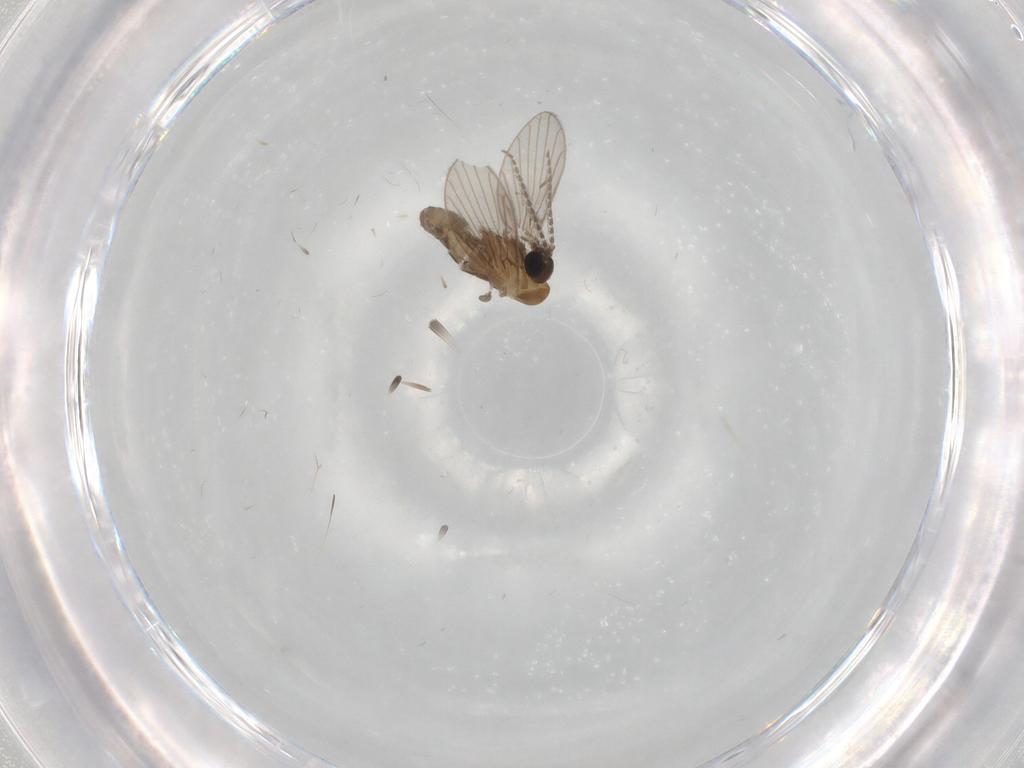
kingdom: Animalia
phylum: Arthropoda
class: Insecta
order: Diptera
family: Psychodidae
